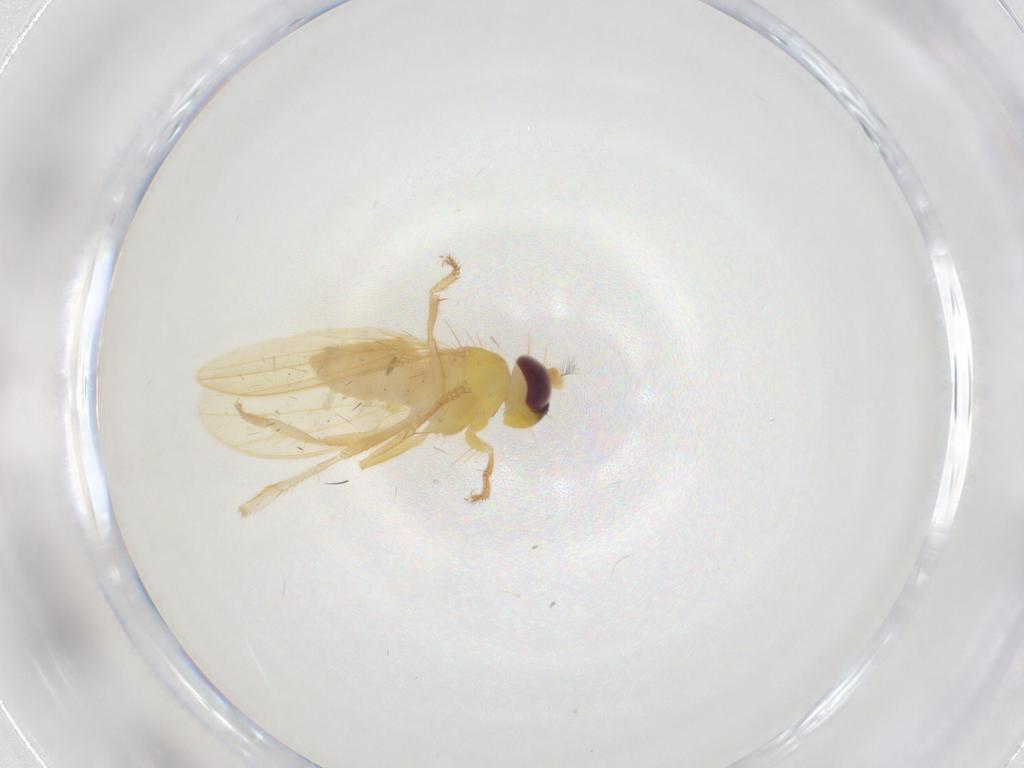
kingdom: Animalia
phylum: Arthropoda
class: Insecta
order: Diptera
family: Periscelididae
